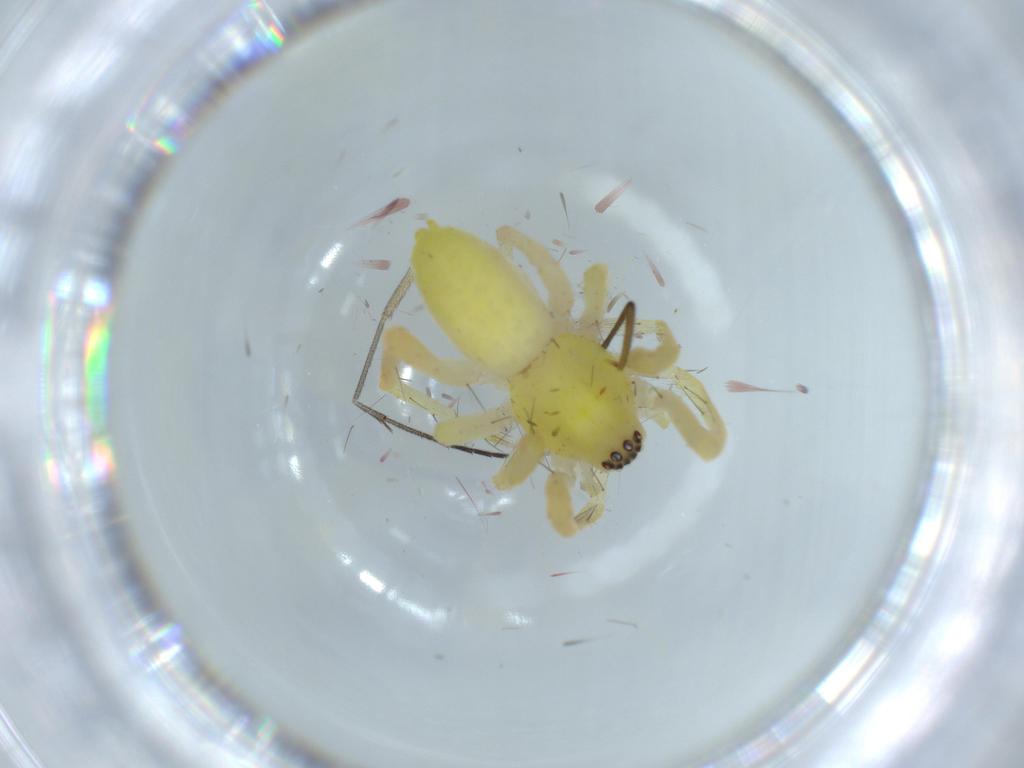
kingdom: Animalia
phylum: Arthropoda
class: Arachnida
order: Araneae
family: Anyphaenidae
